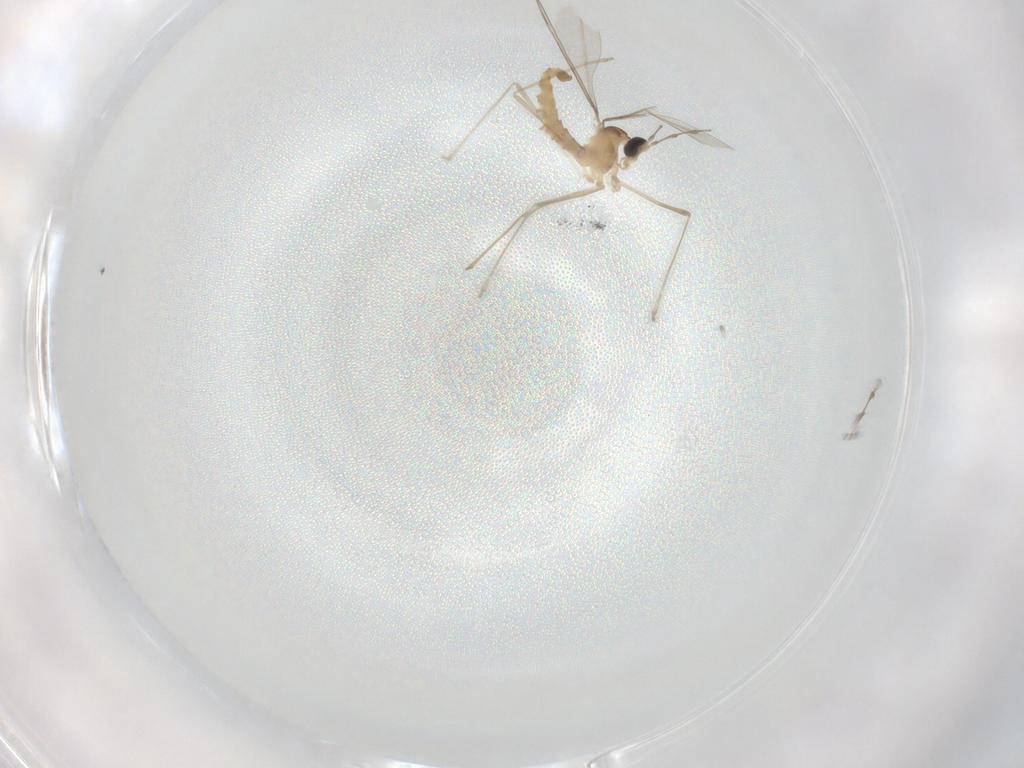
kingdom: Animalia
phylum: Arthropoda
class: Insecta
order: Diptera
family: Cecidomyiidae
